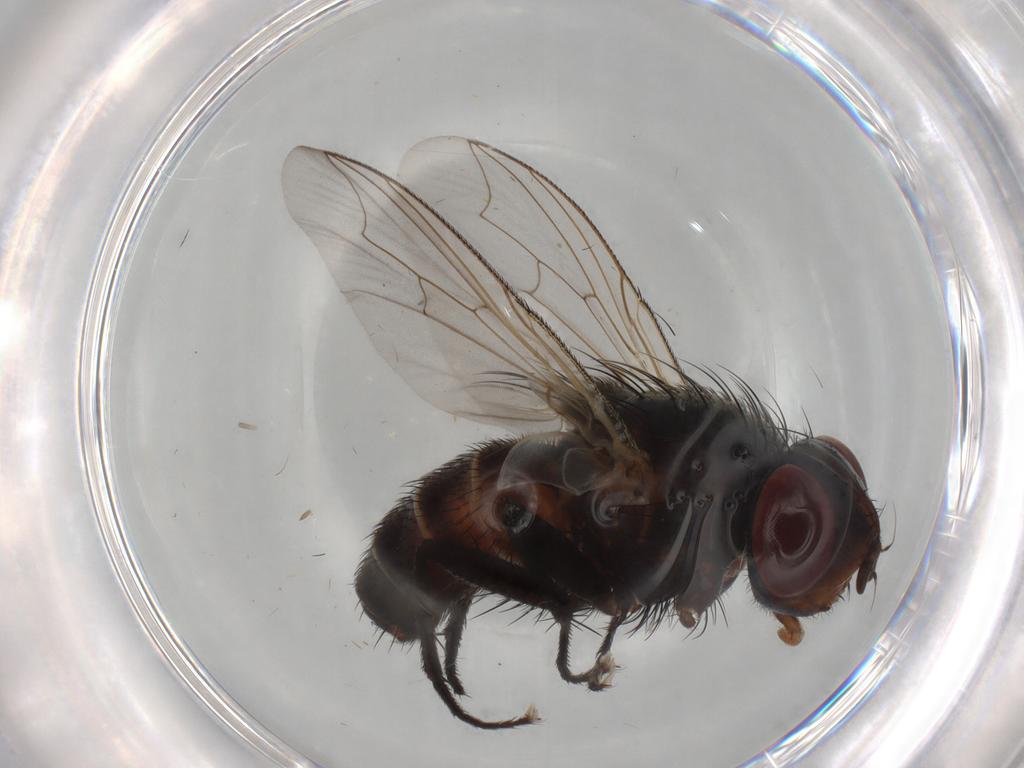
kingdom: Animalia
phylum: Arthropoda
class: Insecta
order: Diptera
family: Sarcophagidae
